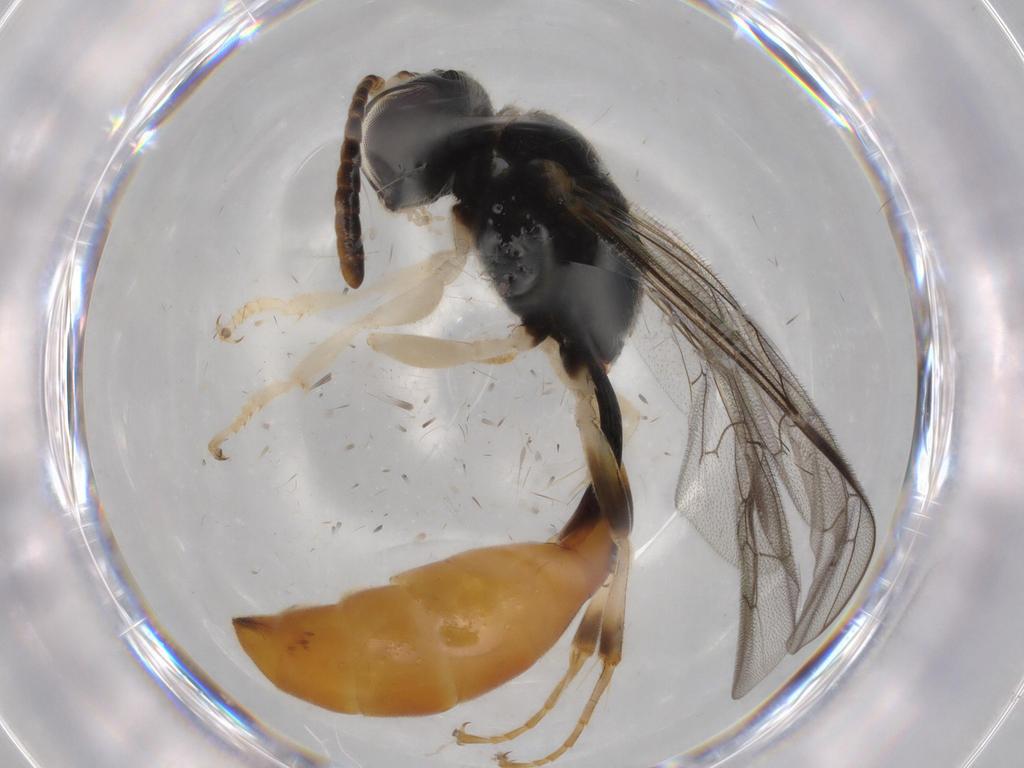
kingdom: Animalia
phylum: Arthropoda
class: Insecta
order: Hymenoptera
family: Crabronidae
